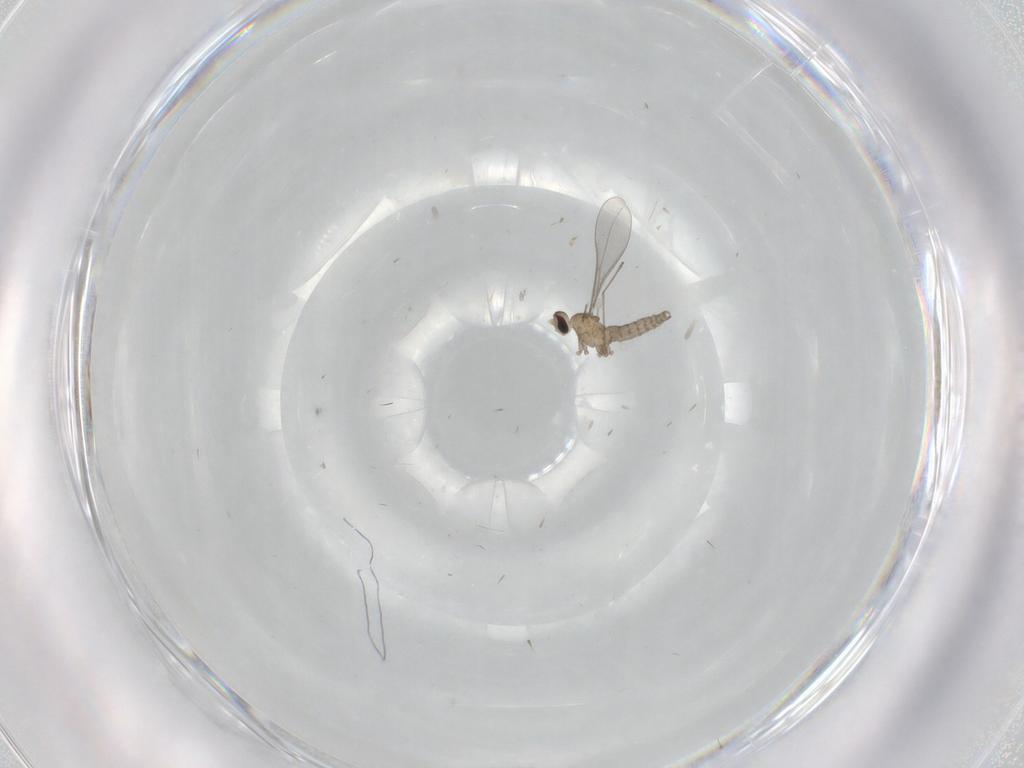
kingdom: Animalia
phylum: Arthropoda
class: Insecta
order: Diptera
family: Cecidomyiidae
